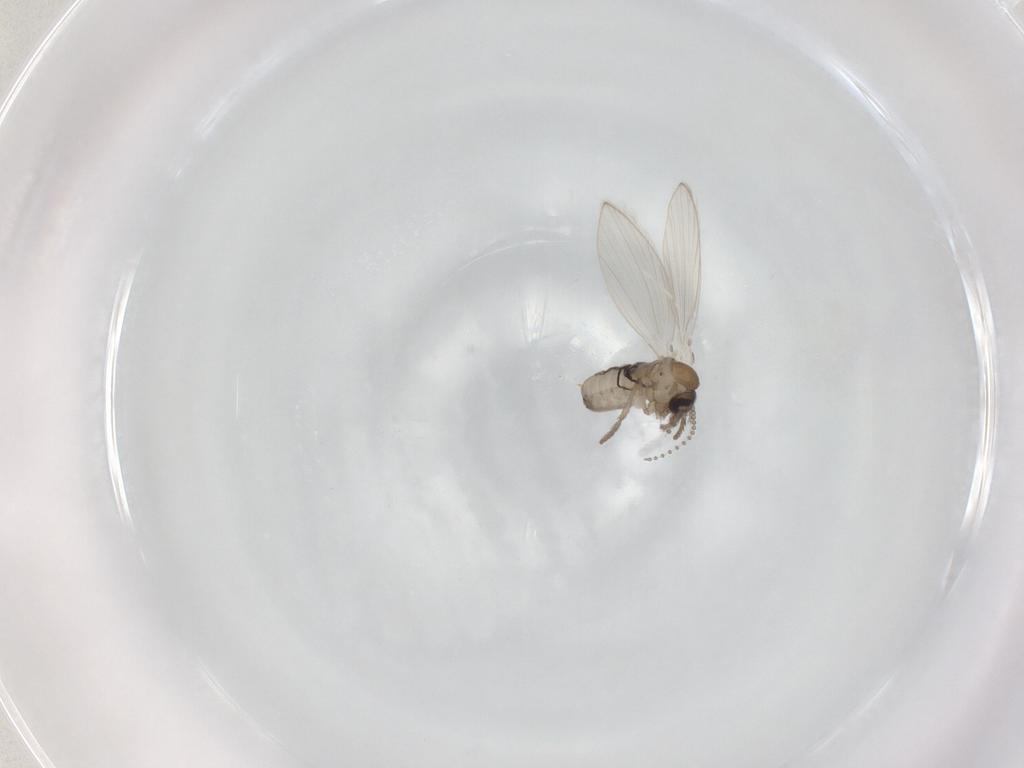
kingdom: Animalia
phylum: Arthropoda
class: Insecta
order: Diptera
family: Psychodidae
